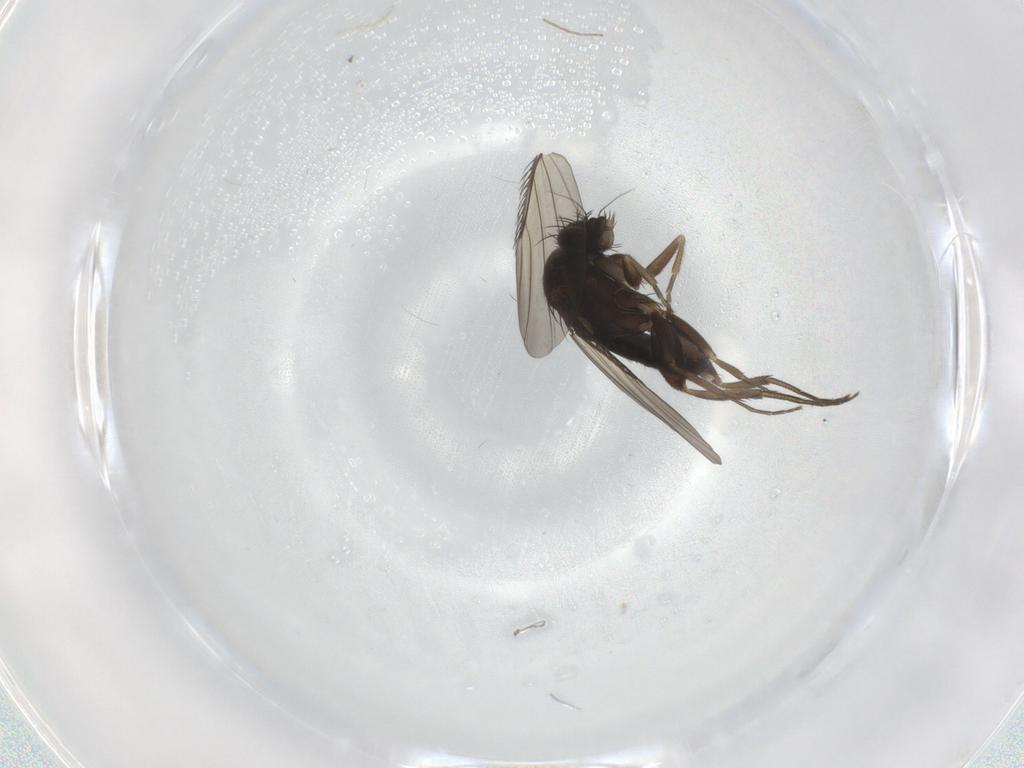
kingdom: Animalia
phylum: Arthropoda
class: Insecta
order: Diptera
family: Phoridae
